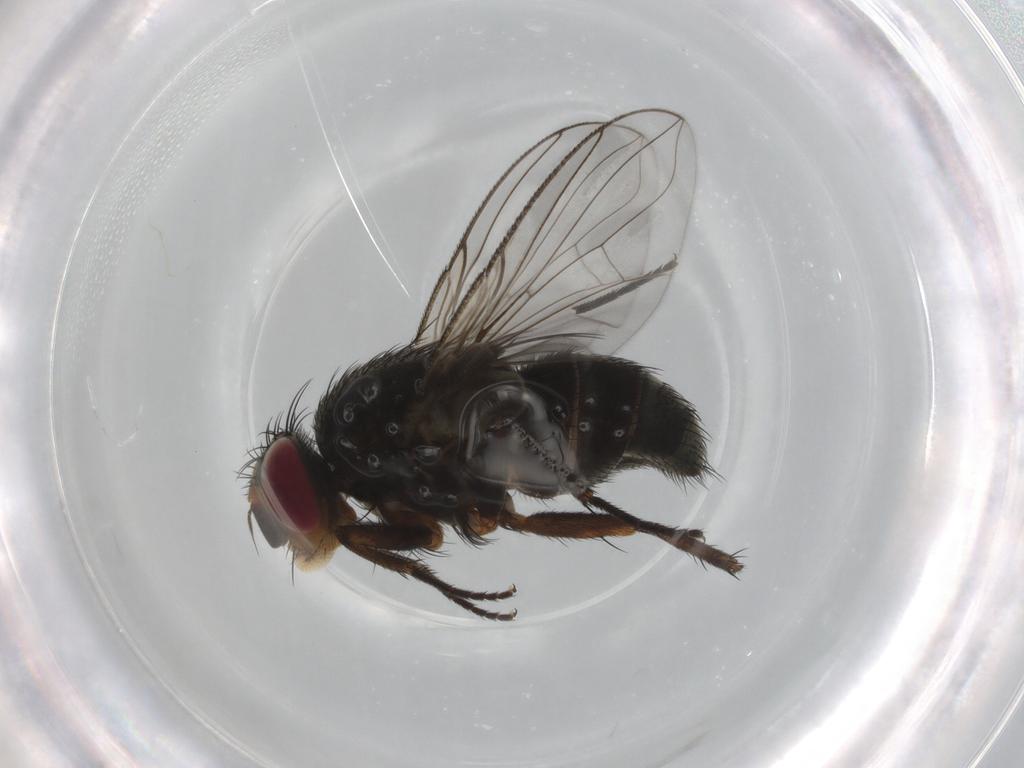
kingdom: Animalia
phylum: Arthropoda
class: Insecta
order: Diptera
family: Tachinidae
